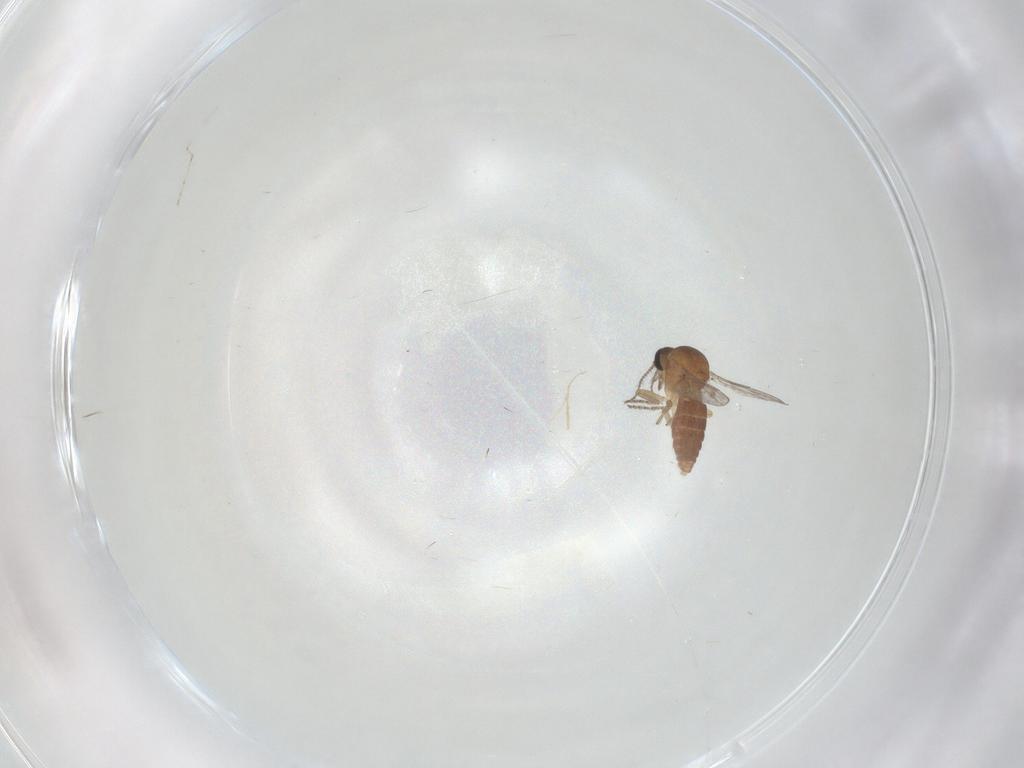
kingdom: Animalia
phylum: Arthropoda
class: Insecta
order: Diptera
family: Ceratopogonidae
